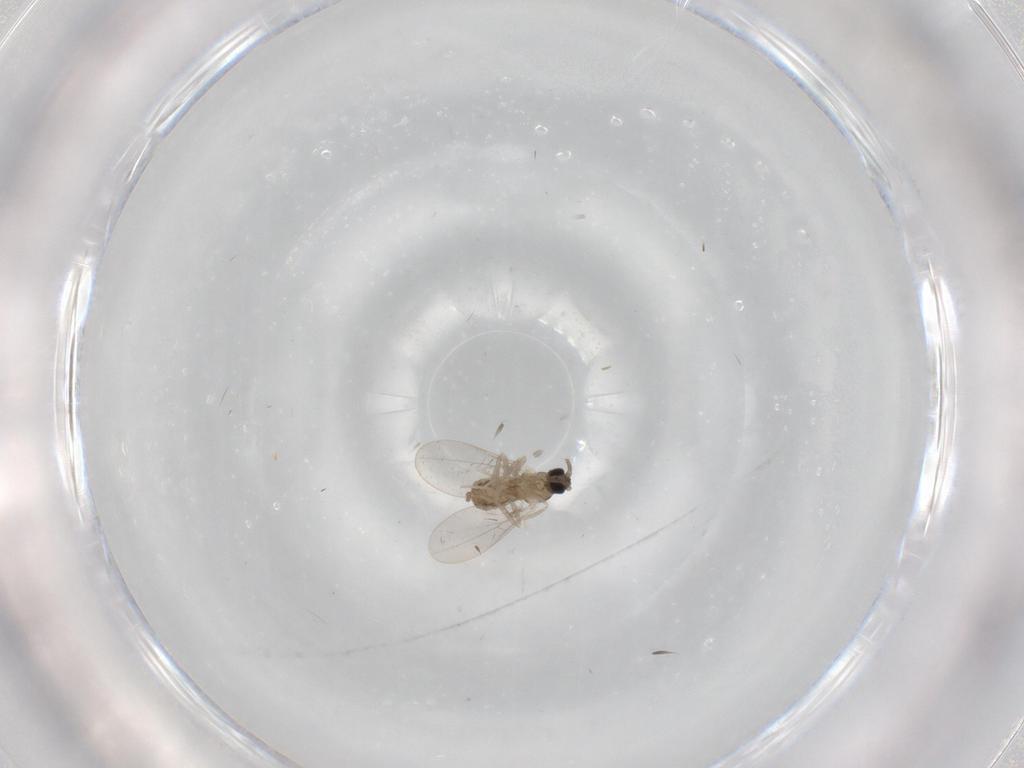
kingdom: Animalia
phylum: Arthropoda
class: Insecta
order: Diptera
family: Cecidomyiidae
